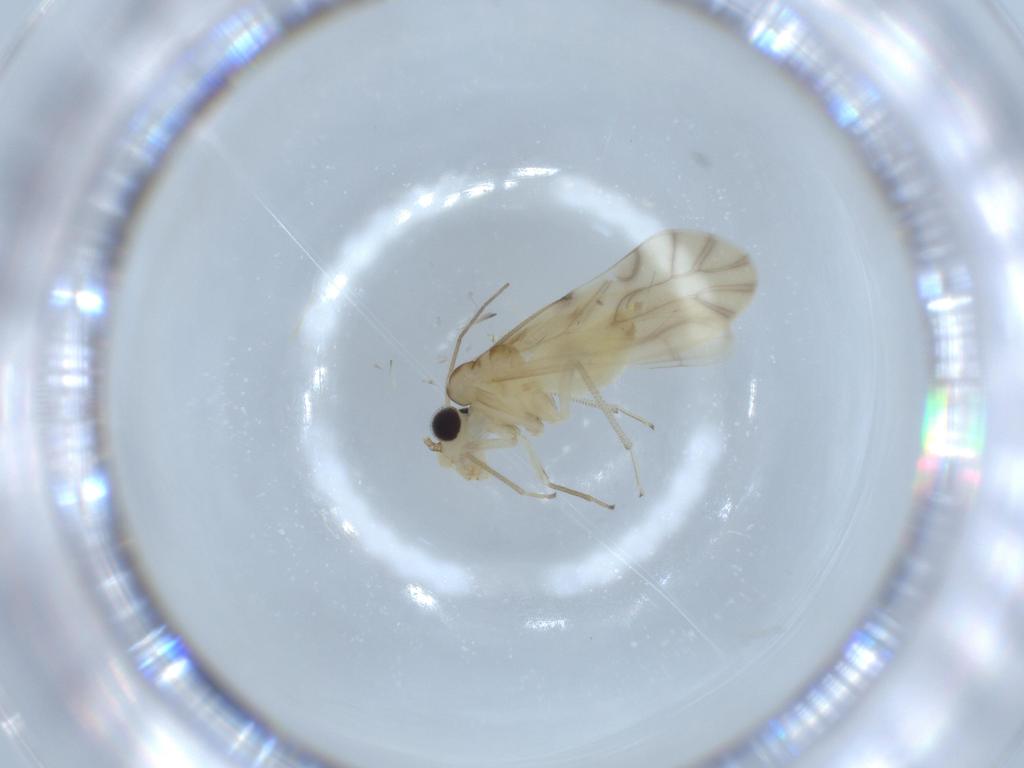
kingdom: Animalia
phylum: Arthropoda
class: Insecta
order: Psocodea
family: Caeciliusidae
